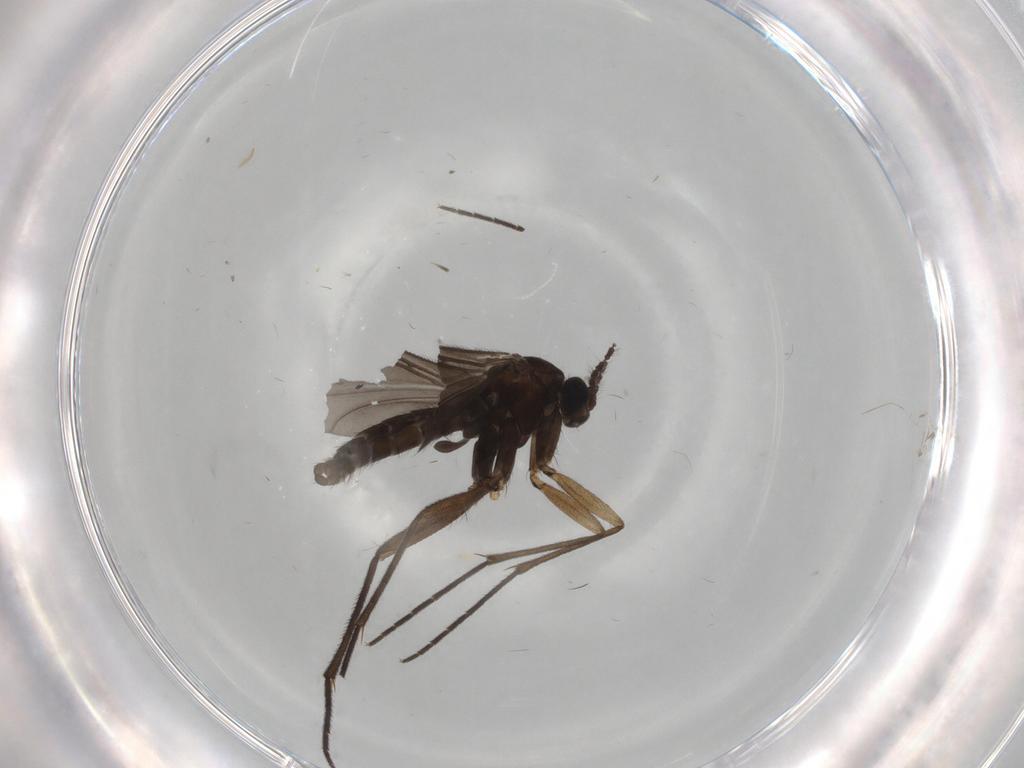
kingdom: Animalia
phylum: Arthropoda
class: Insecta
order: Diptera
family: Sciaridae
